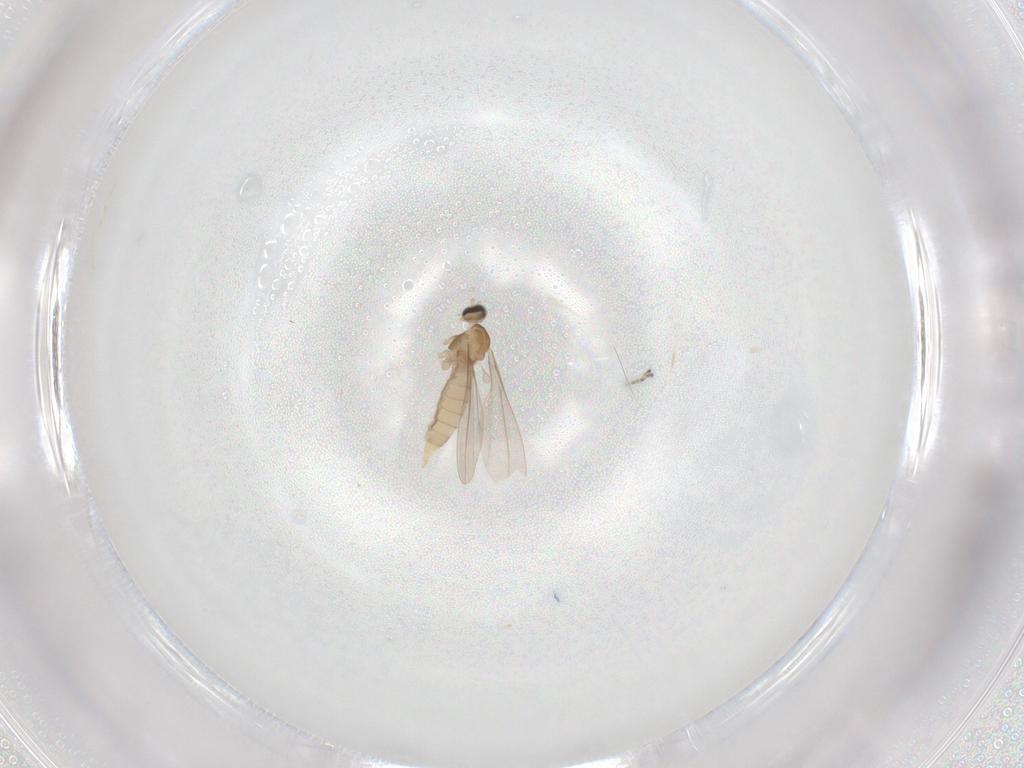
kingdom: Animalia
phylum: Arthropoda
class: Insecta
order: Diptera
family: Cecidomyiidae
